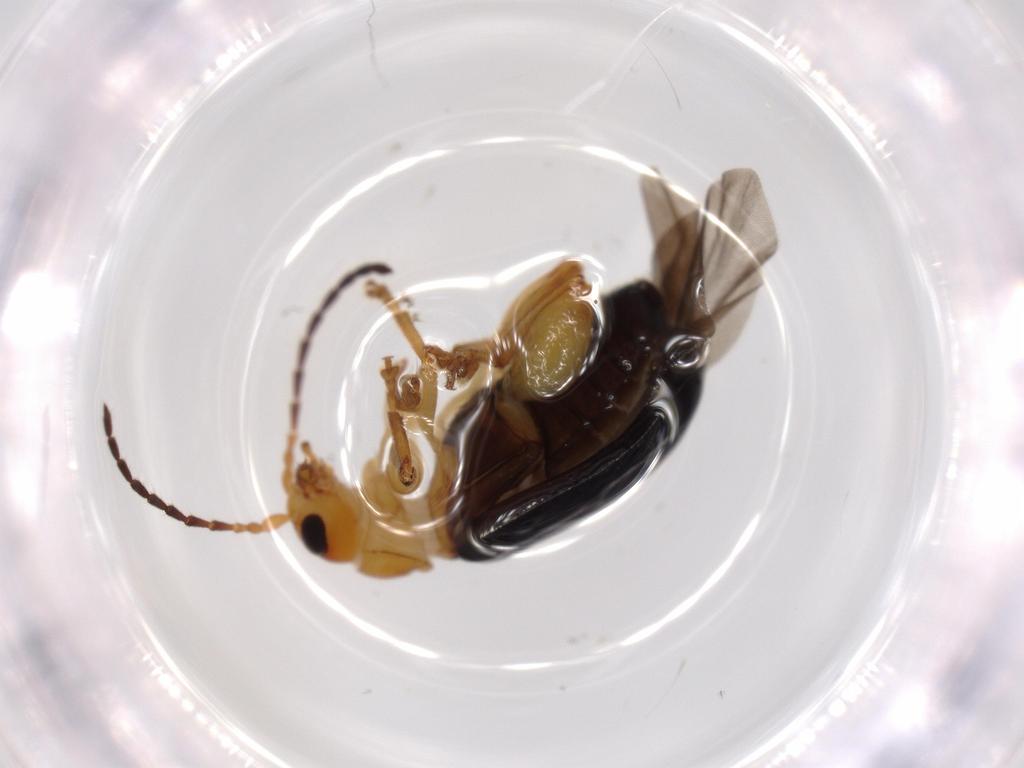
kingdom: Animalia
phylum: Arthropoda
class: Insecta
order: Coleoptera
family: Chrysomelidae
